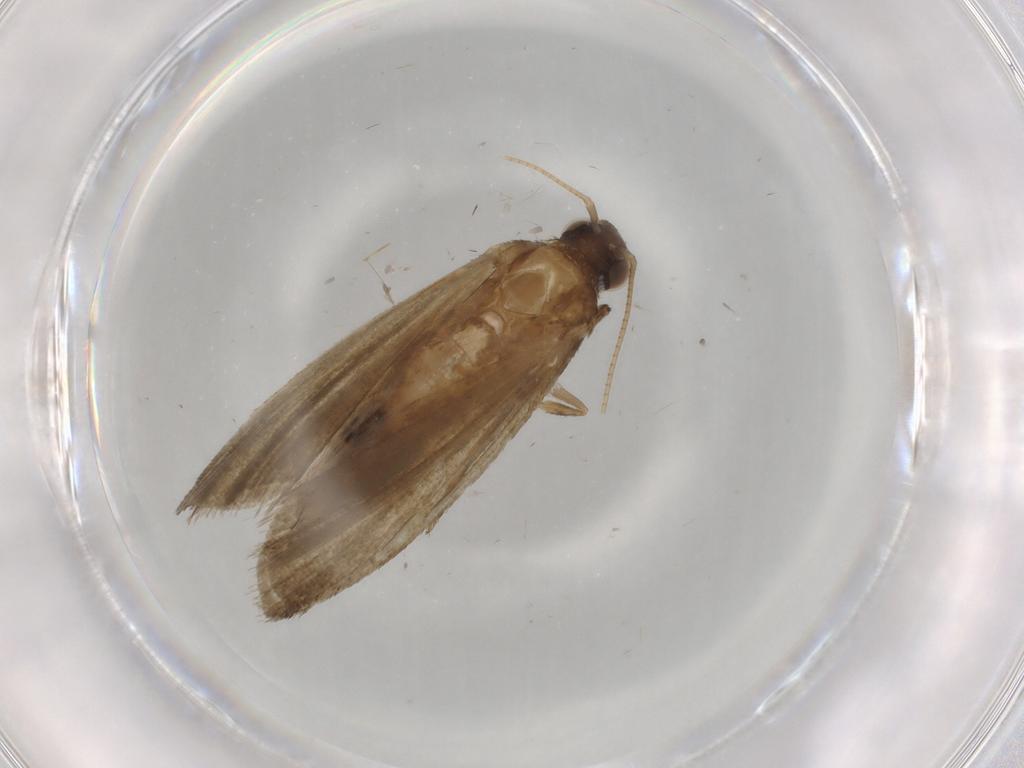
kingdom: Animalia
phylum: Arthropoda
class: Insecta
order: Lepidoptera
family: Noctuidae
